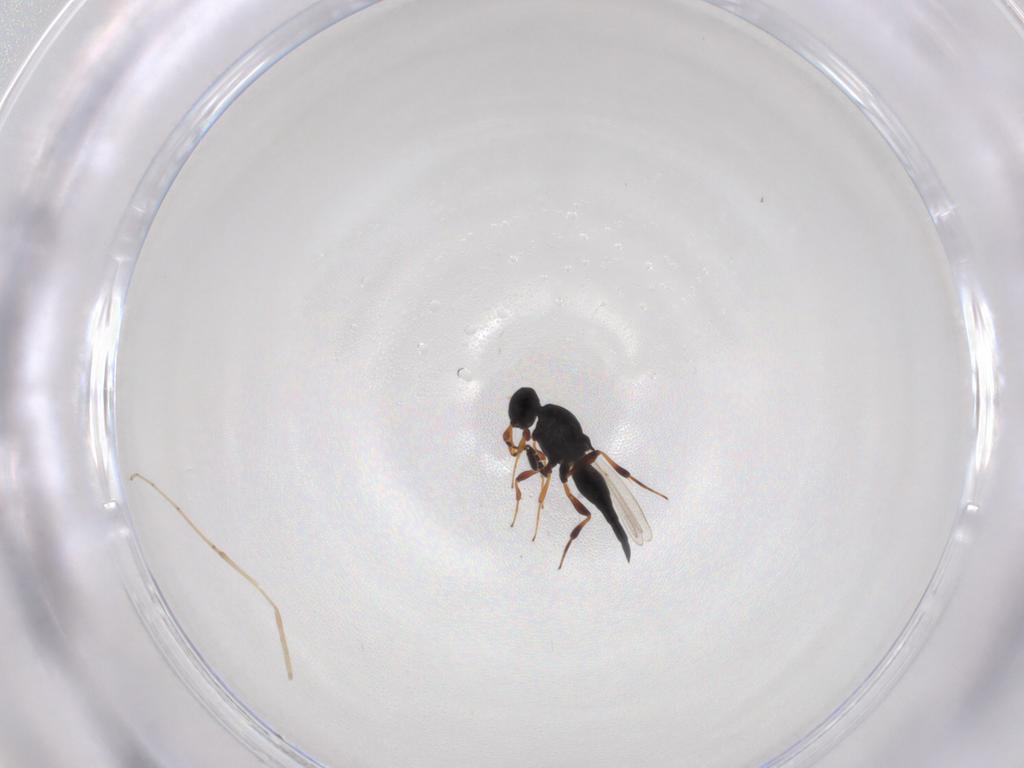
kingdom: Animalia
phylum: Arthropoda
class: Insecta
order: Hymenoptera
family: Platygastridae
